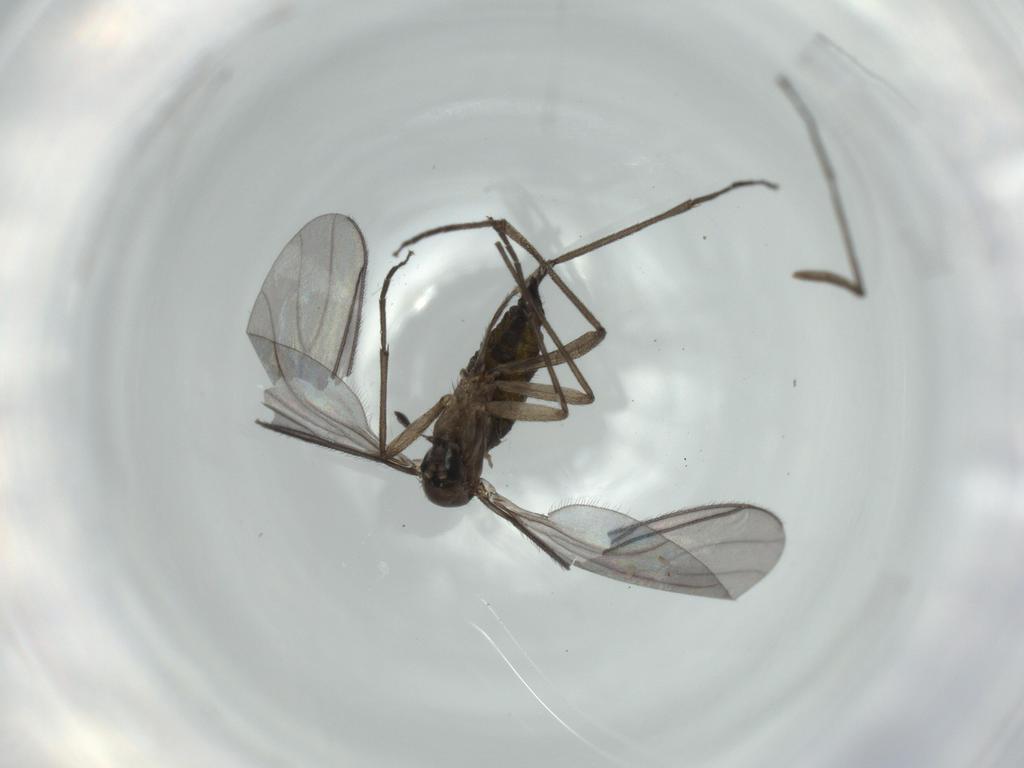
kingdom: Animalia
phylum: Arthropoda
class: Insecta
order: Diptera
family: Sciaridae
